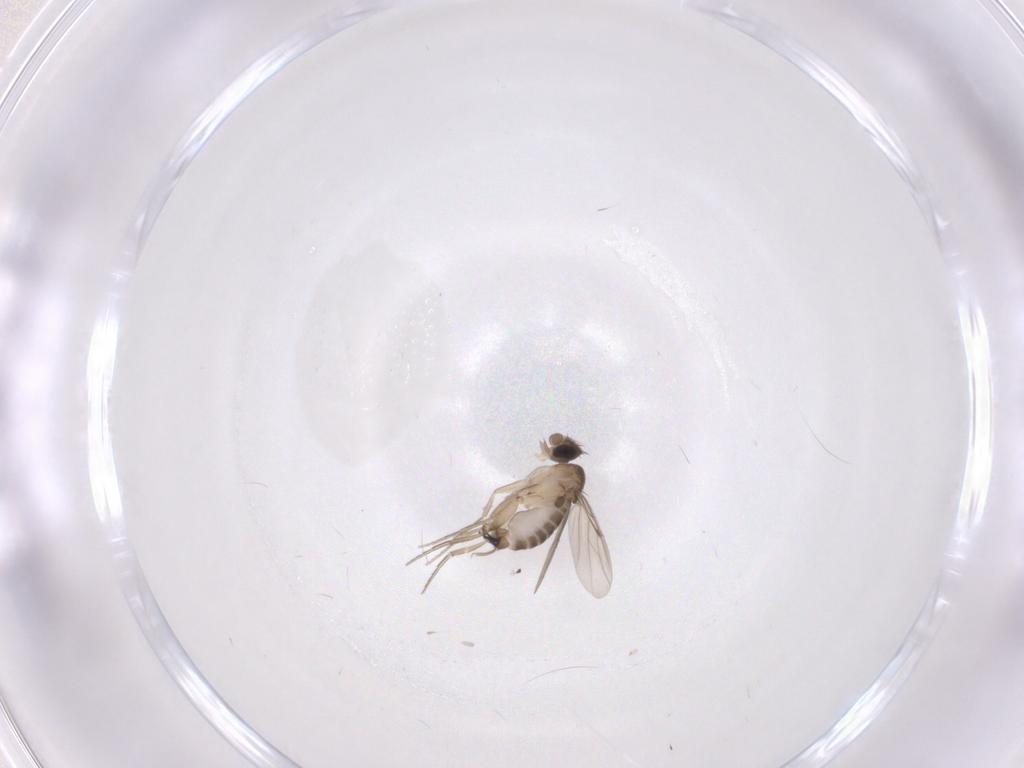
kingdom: Animalia
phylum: Arthropoda
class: Insecta
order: Diptera
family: Phoridae
